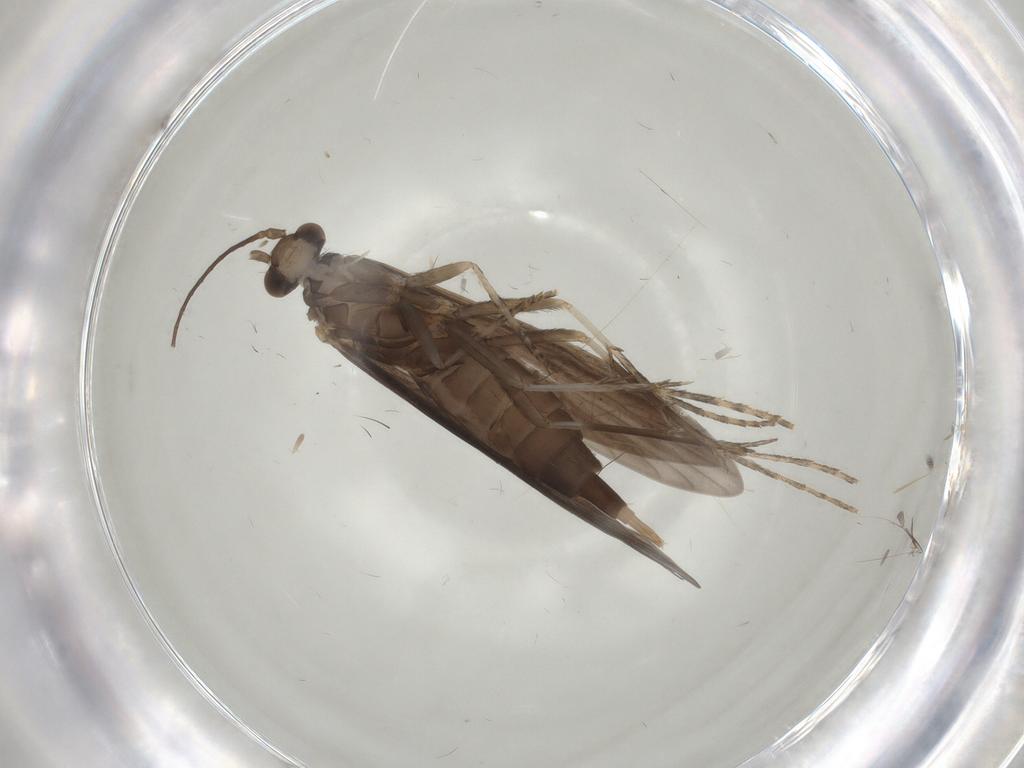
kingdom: Animalia
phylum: Arthropoda
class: Insecta
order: Trichoptera
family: Xiphocentronidae
